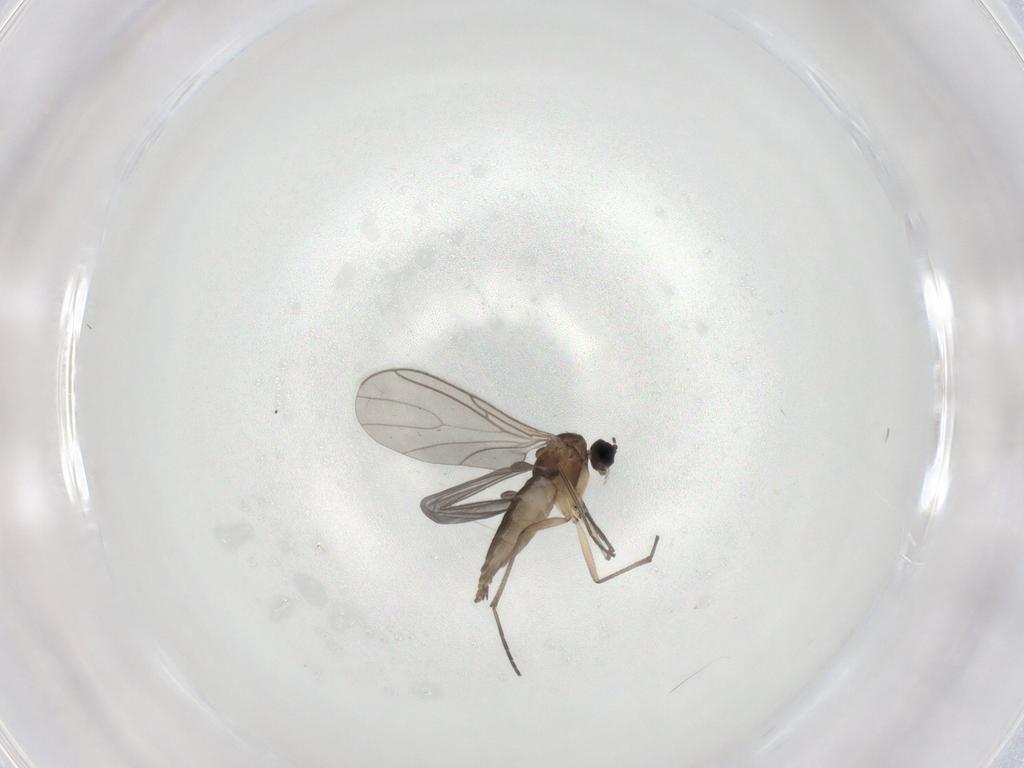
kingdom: Animalia
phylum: Arthropoda
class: Insecta
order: Diptera
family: Sciaridae
